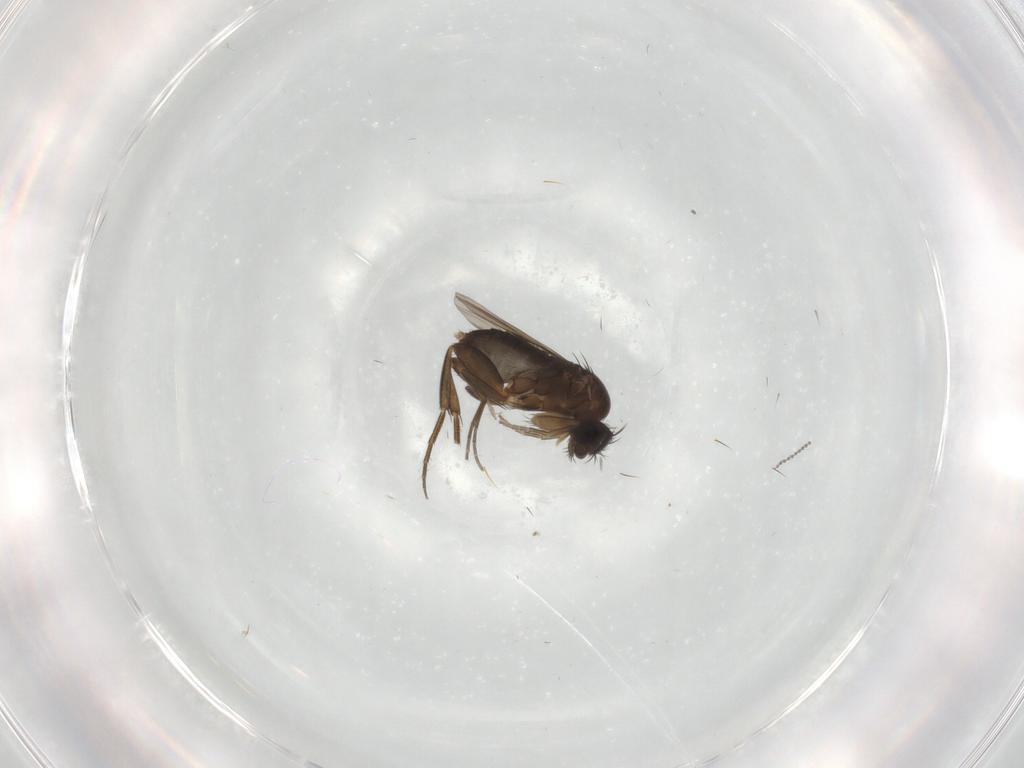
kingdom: Animalia
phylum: Arthropoda
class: Insecta
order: Diptera
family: Phoridae
